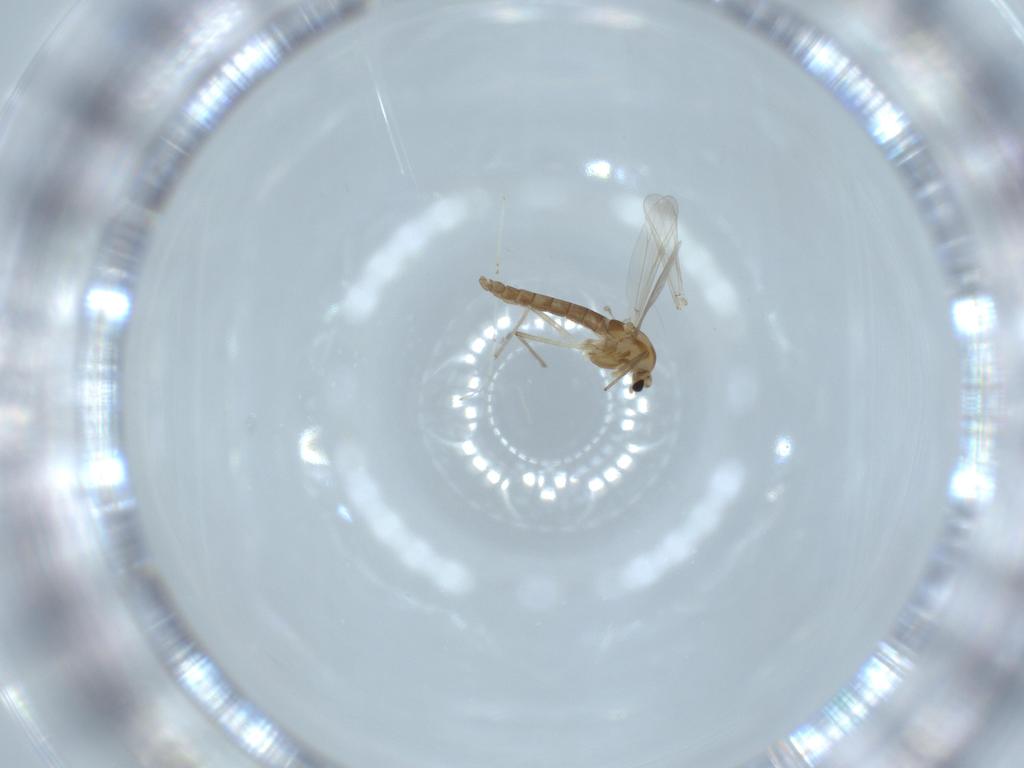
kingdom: Animalia
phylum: Arthropoda
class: Insecta
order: Diptera
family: Chironomidae
